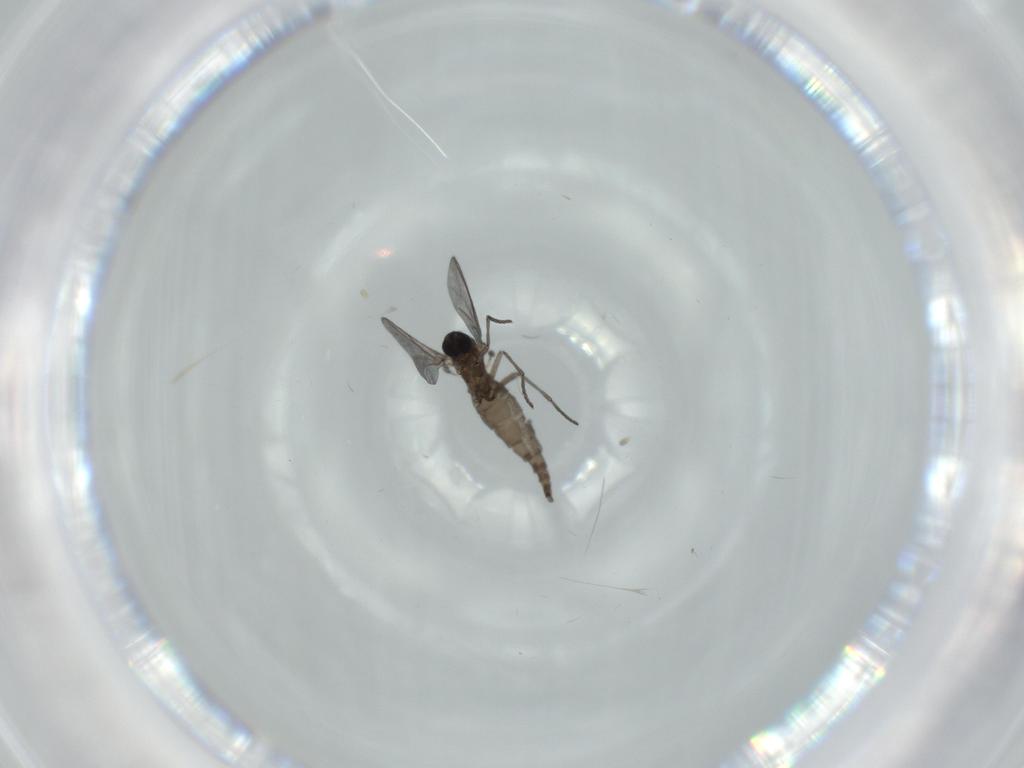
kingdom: Animalia
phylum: Arthropoda
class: Insecta
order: Diptera
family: Sciaridae
